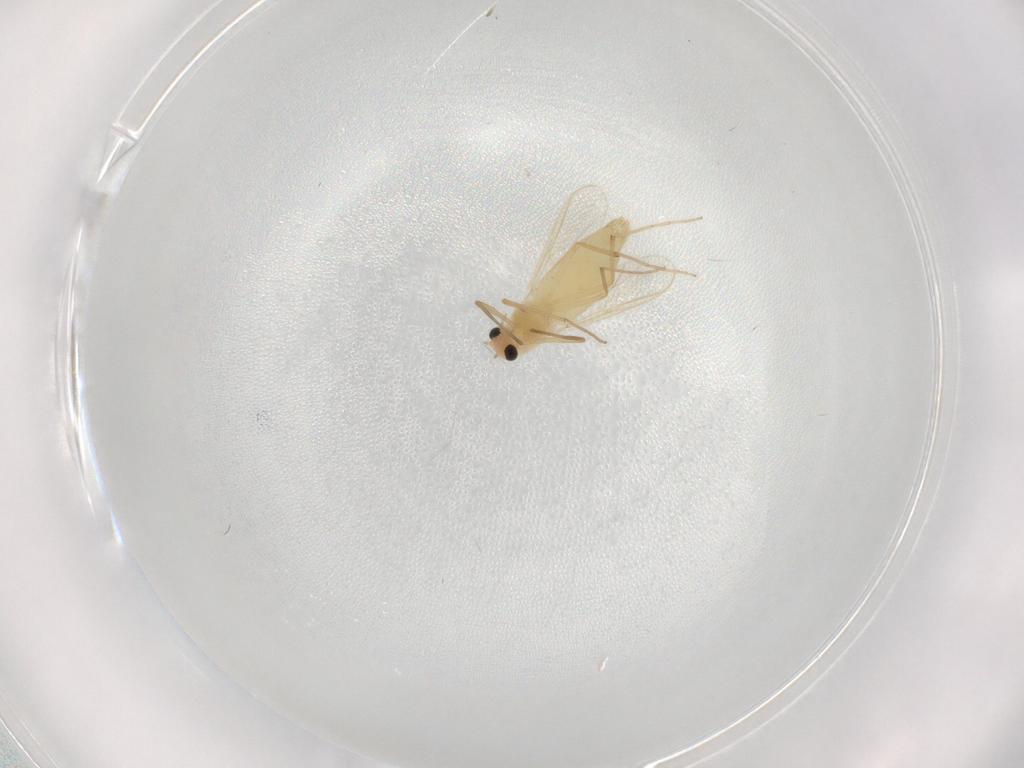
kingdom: Animalia
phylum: Arthropoda
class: Insecta
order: Diptera
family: Chironomidae
